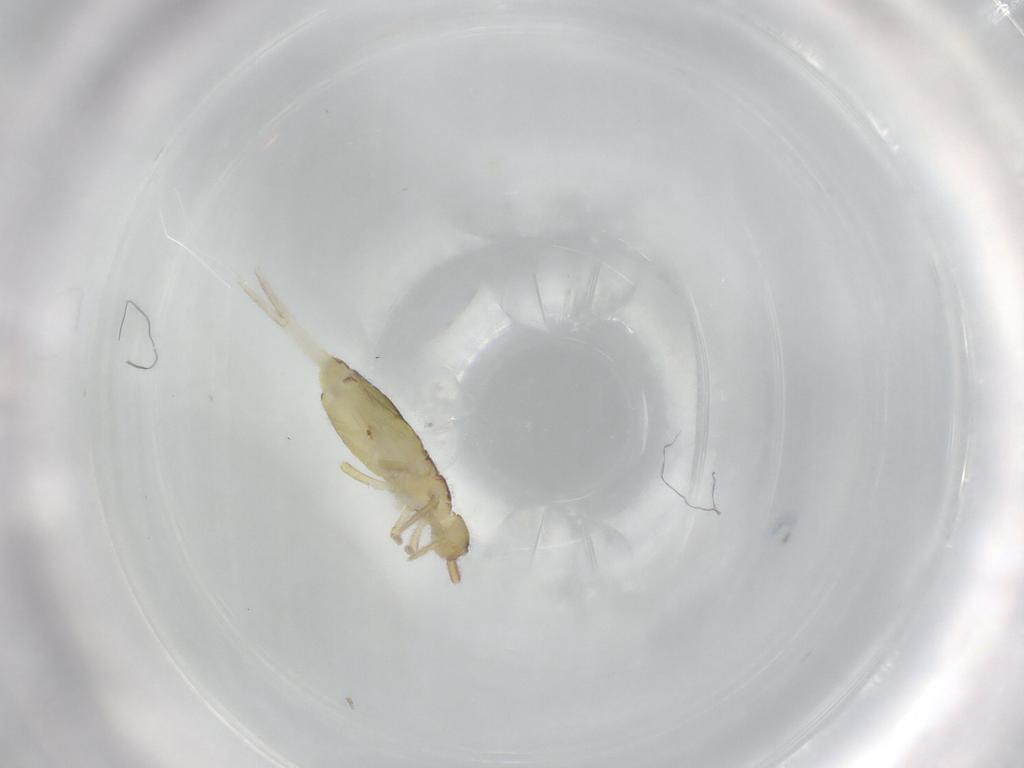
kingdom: Animalia
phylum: Arthropoda
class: Collembola
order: Entomobryomorpha
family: Entomobryidae
